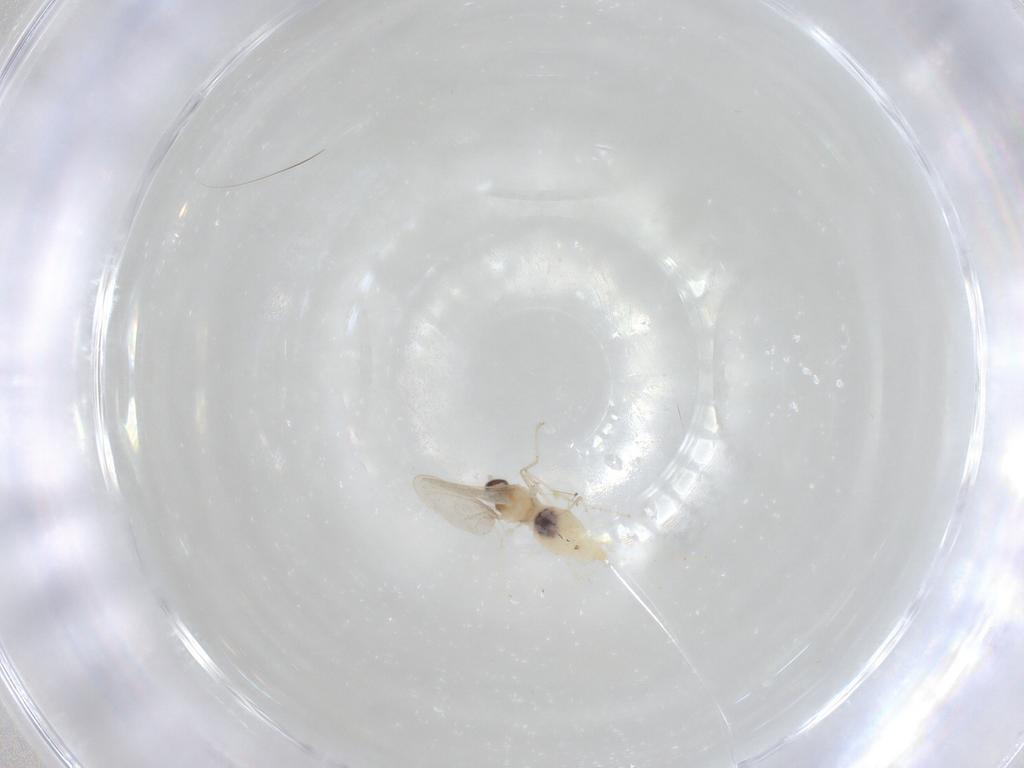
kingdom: Animalia
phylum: Arthropoda
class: Insecta
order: Diptera
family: Cecidomyiidae
